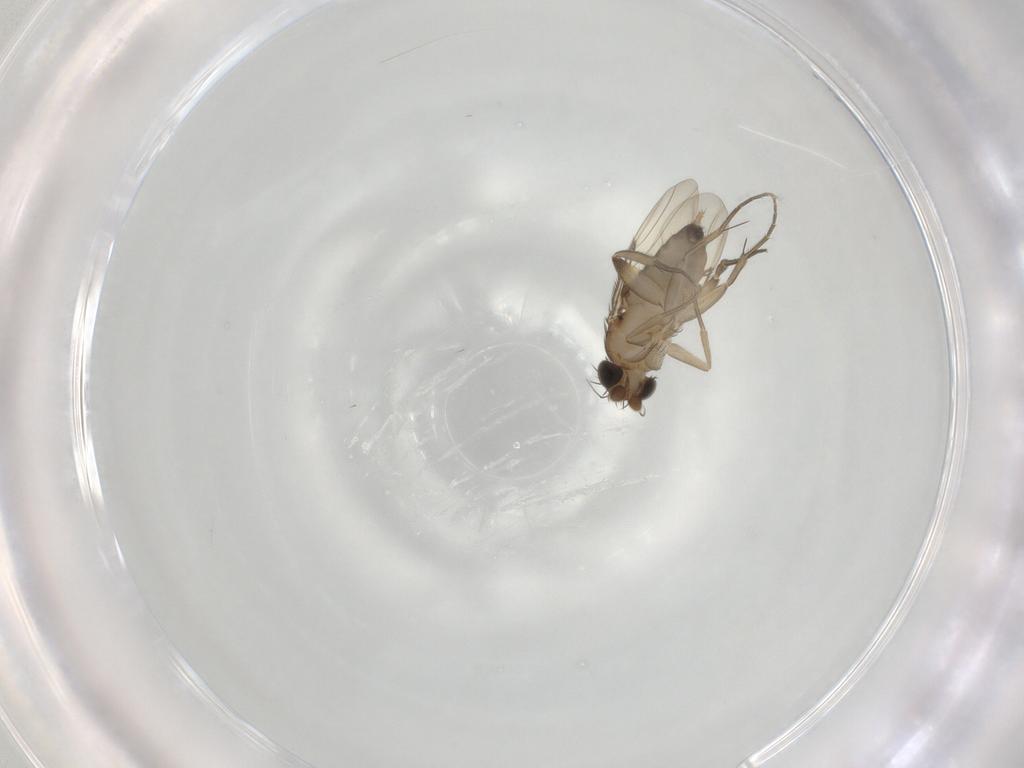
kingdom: Animalia
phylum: Arthropoda
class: Insecta
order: Diptera
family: Phoridae
